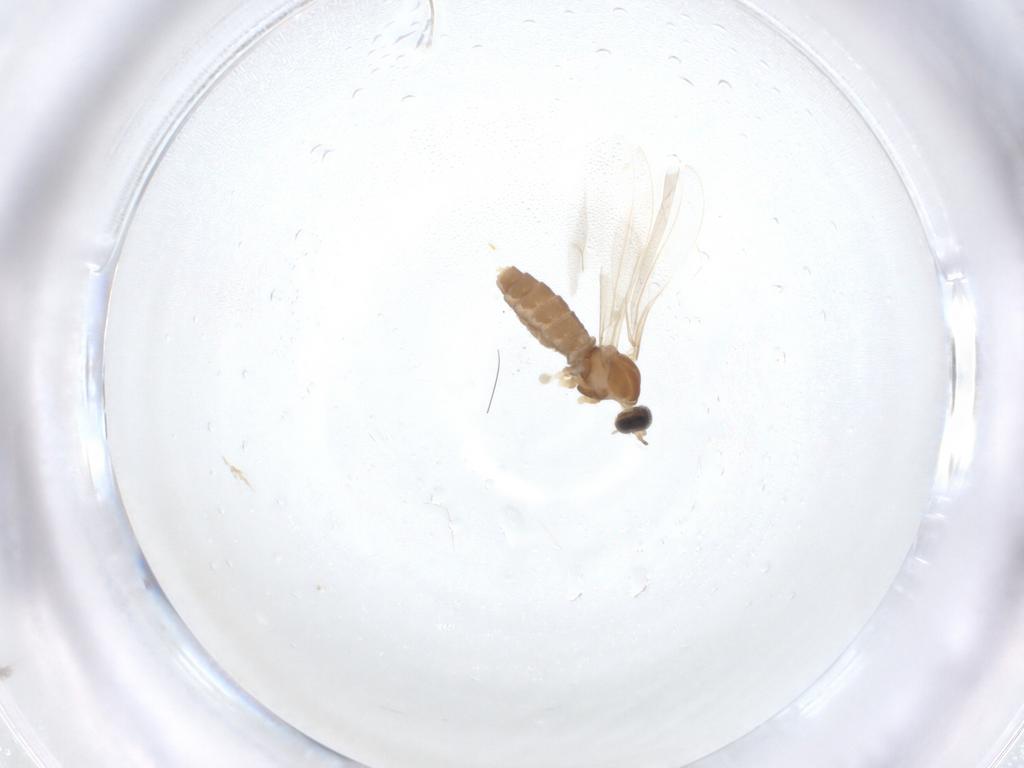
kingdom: Animalia
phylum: Arthropoda
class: Insecta
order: Diptera
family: Cecidomyiidae
